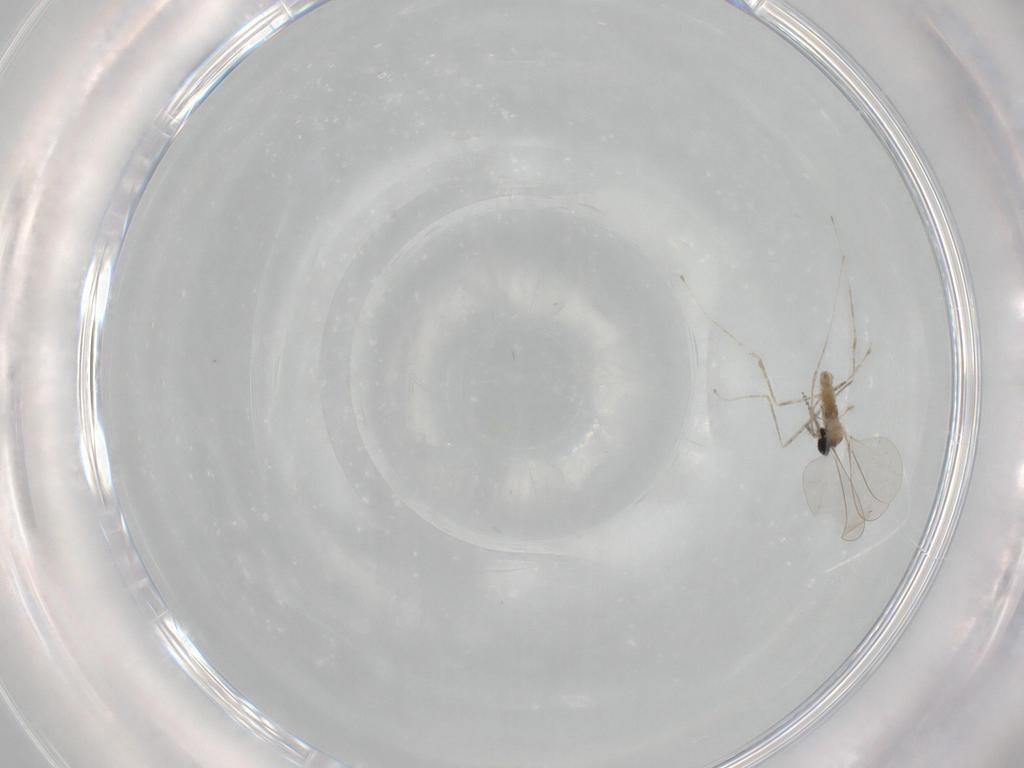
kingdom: Animalia
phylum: Arthropoda
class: Insecta
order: Diptera
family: Cecidomyiidae
